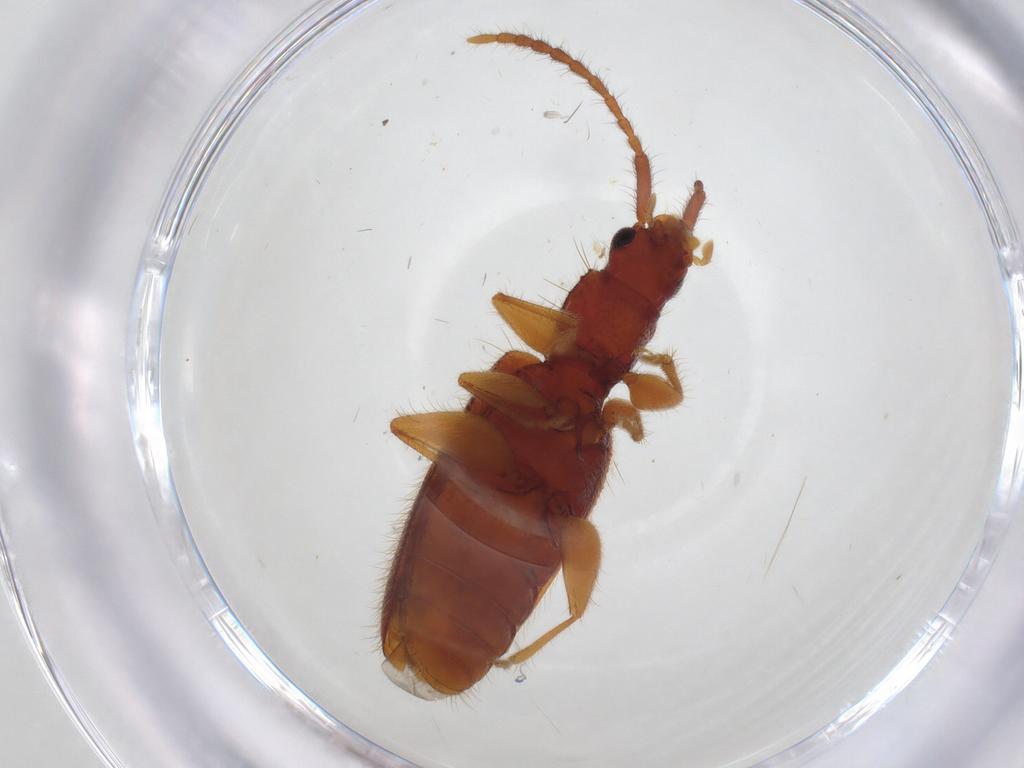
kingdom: Animalia
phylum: Arthropoda
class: Insecta
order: Coleoptera
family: Silvanidae
